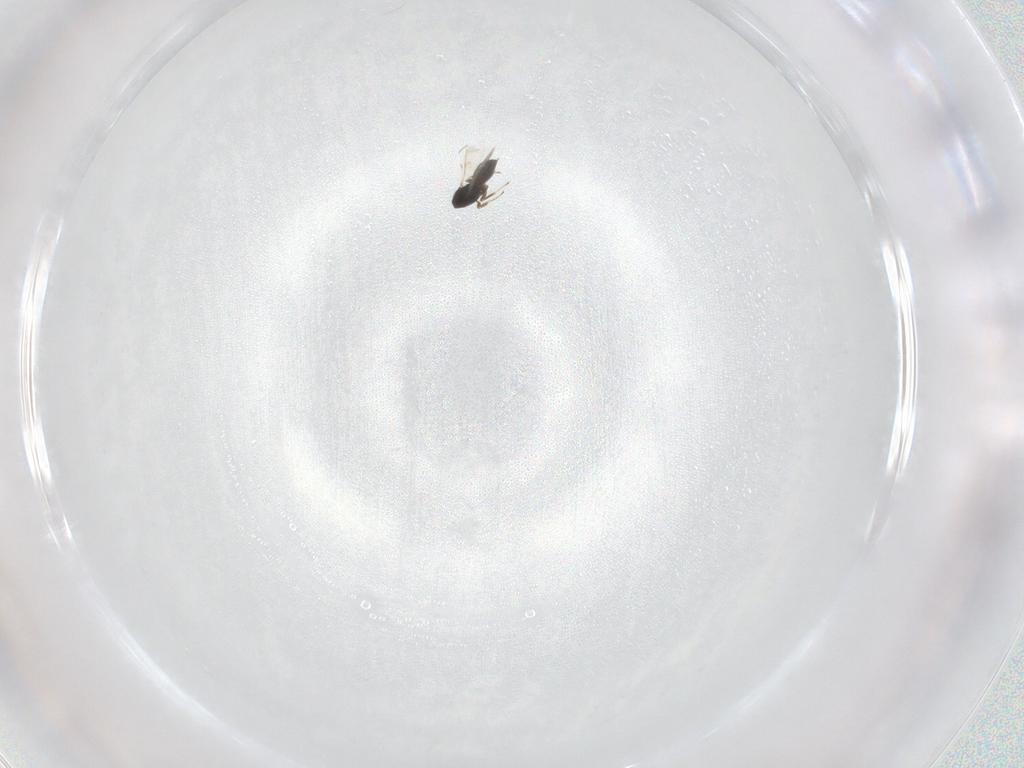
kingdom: Animalia
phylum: Arthropoda
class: Insecta
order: Hymenoptera
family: Scelionidae
